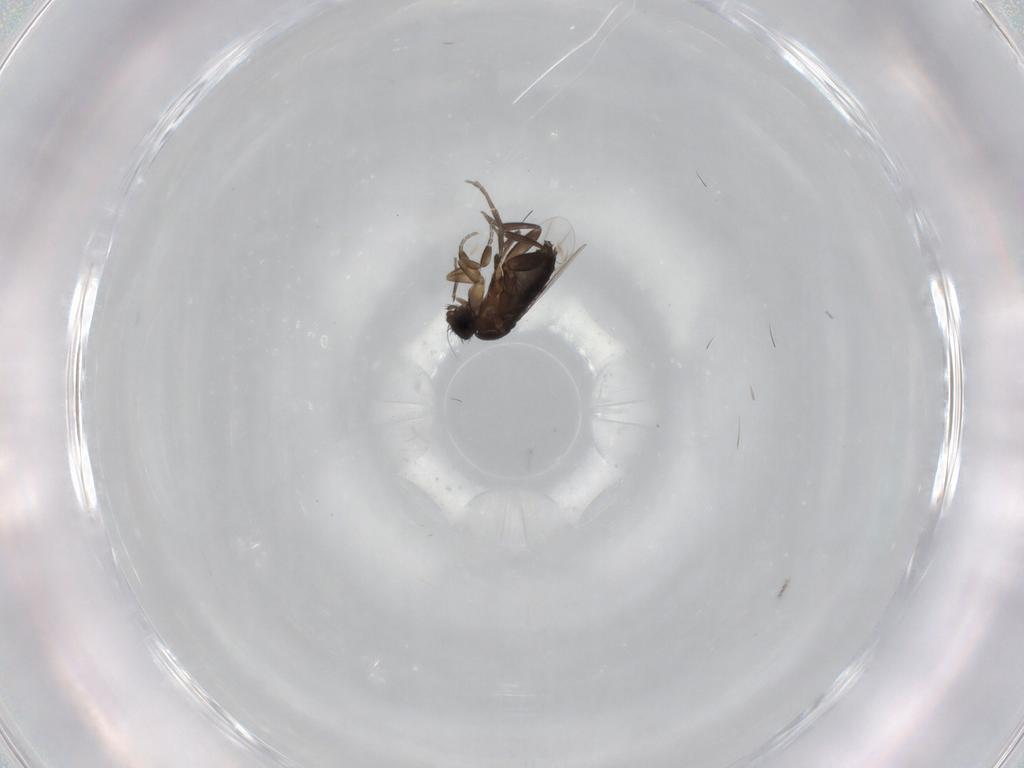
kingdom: Animalia
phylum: Arthropoda
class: Insecta
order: Diptera
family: Phoridae
